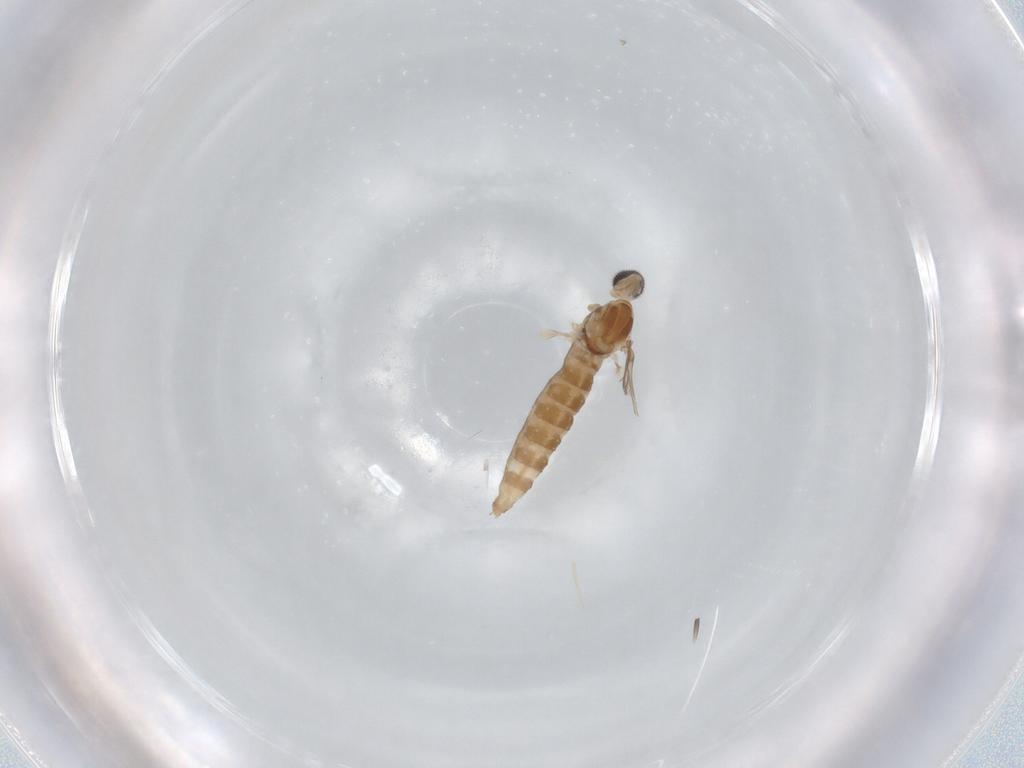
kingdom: Animalia
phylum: Arthropoda
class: Insecta
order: Diptera
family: Cecidomyiidae
